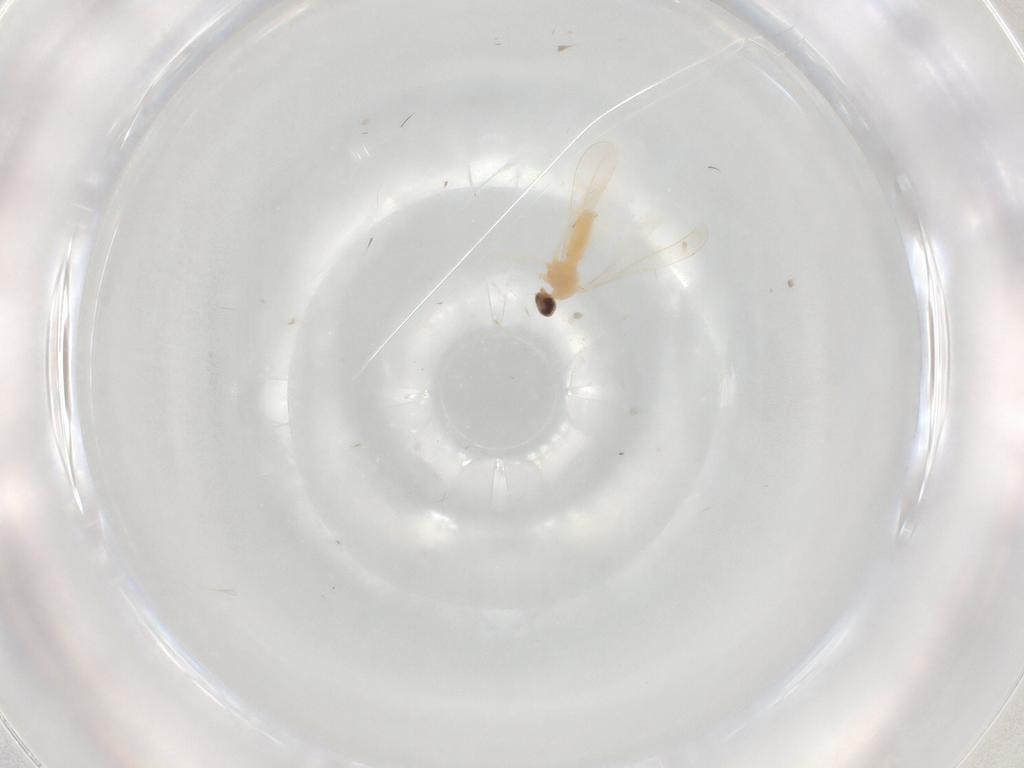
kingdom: Animalia
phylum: Arthropoda
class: Insecta
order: Diptera
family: Cecidomyiidae
